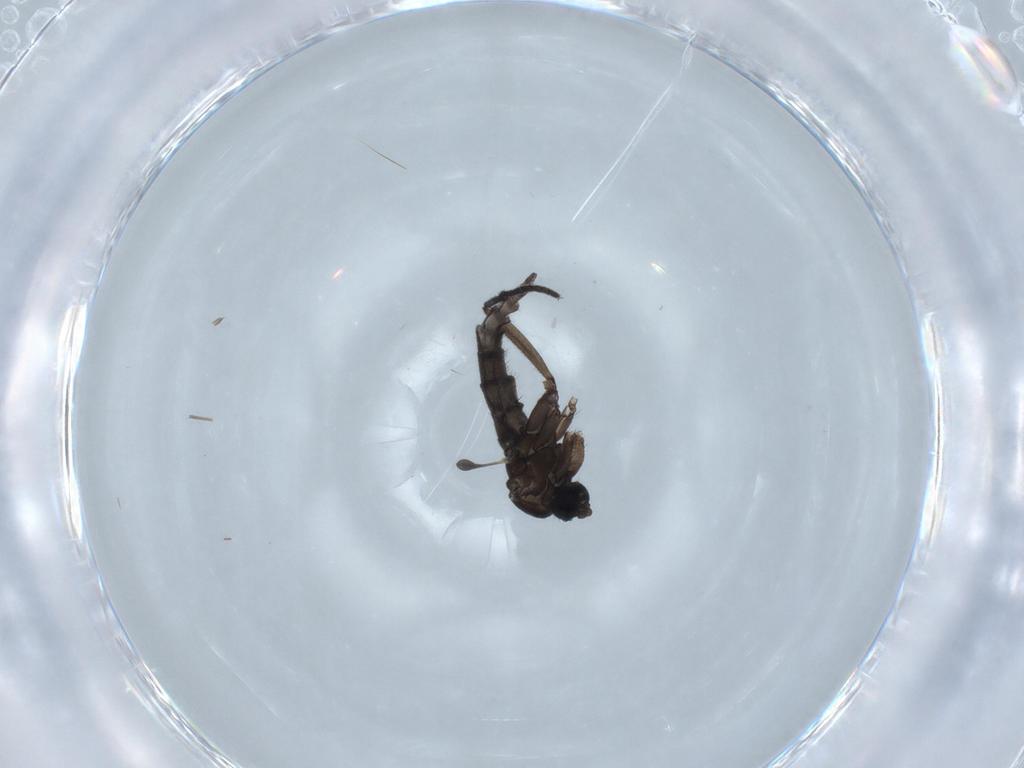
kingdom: Animalia
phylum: Arthropoda
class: Insecta
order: Diptera
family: Sciaridae
